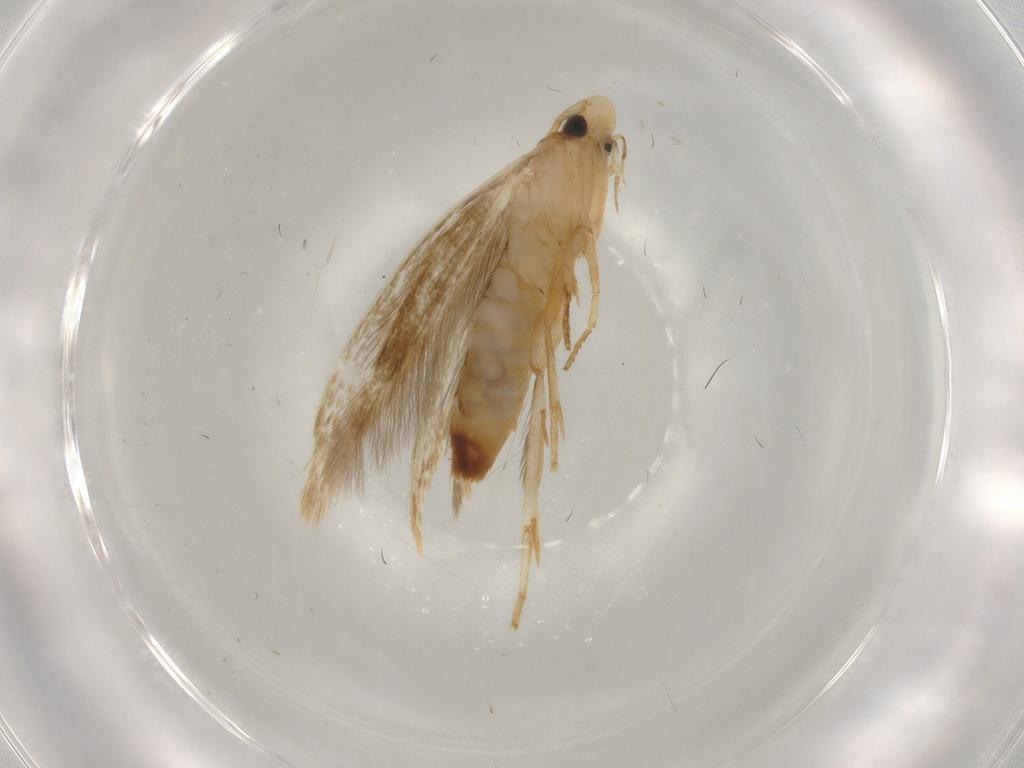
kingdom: Animalia
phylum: Arthropoda
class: Insecta
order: Lepidoptera
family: Tineidae
